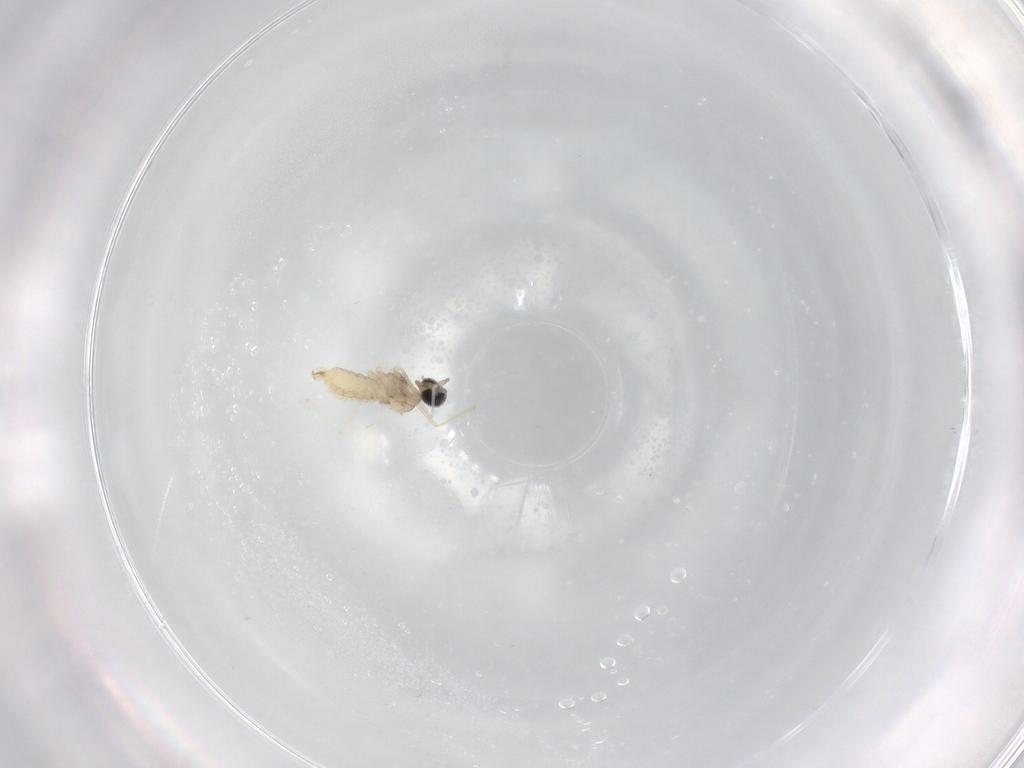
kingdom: Animalia
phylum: Arthropoda
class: Insecta
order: Diptera
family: Cecidomyiidae
